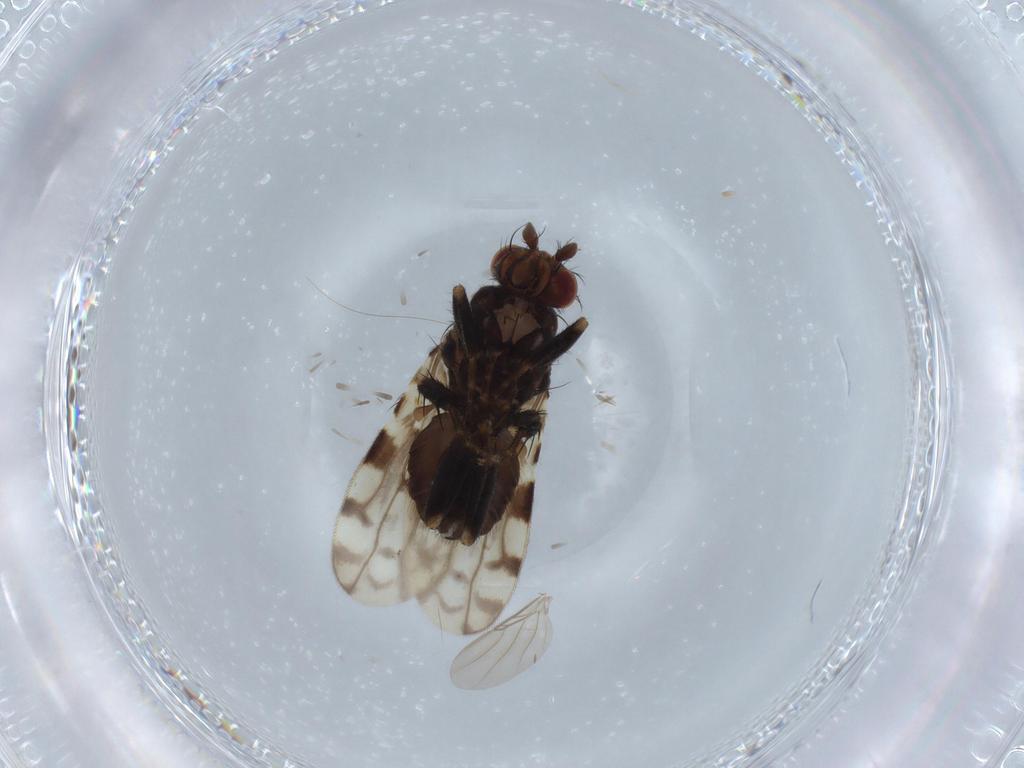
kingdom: Animalia
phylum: Arthropoda
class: Insecta
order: Diptera
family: Sphaeroceridae
